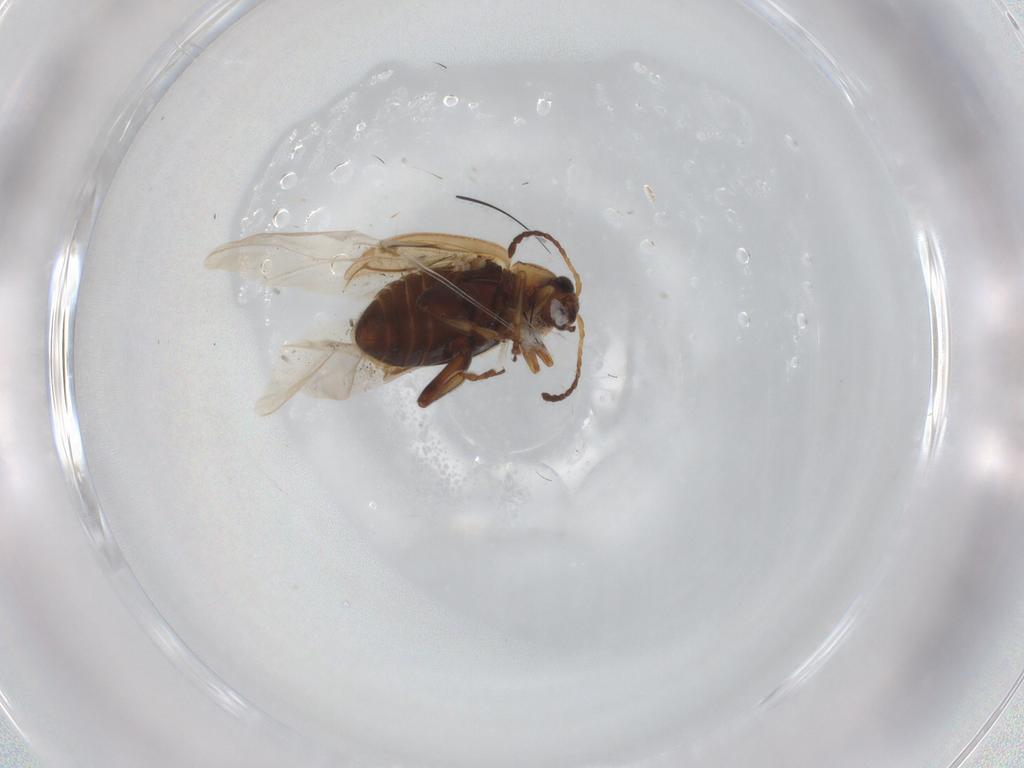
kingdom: Animalia
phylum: Arthropoda
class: Insecta
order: Coleoptera
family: Chrysomelidae
